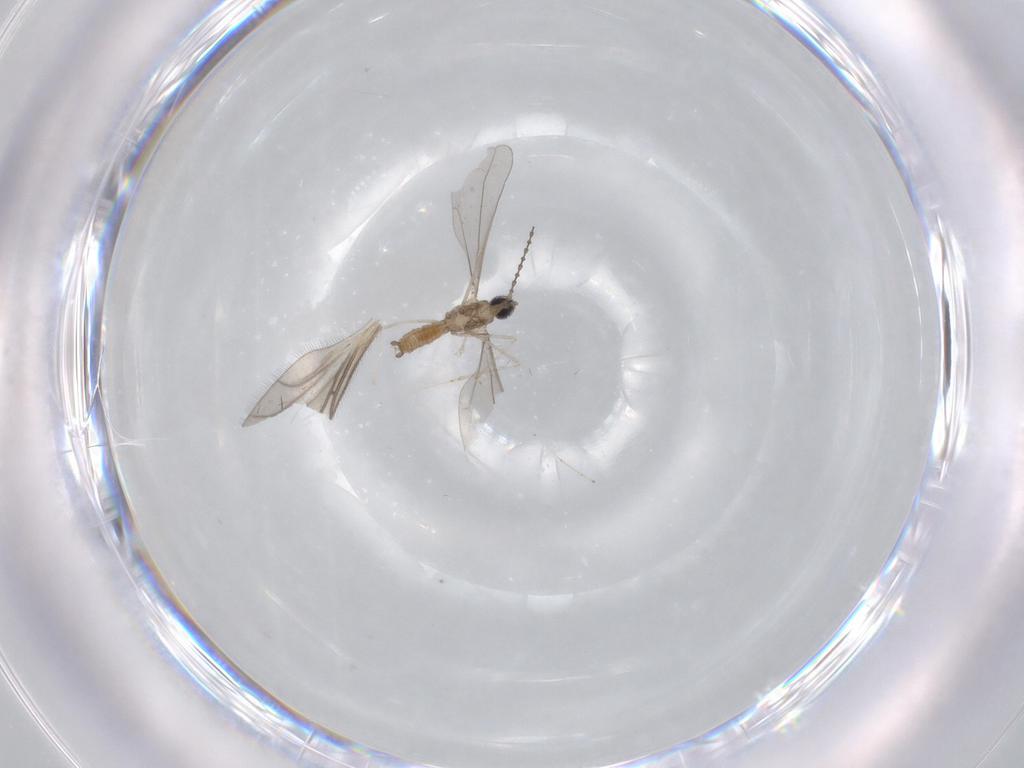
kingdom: Animalia
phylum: Arthropoda
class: Insecta
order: Diptera
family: Cecidomyiidae
